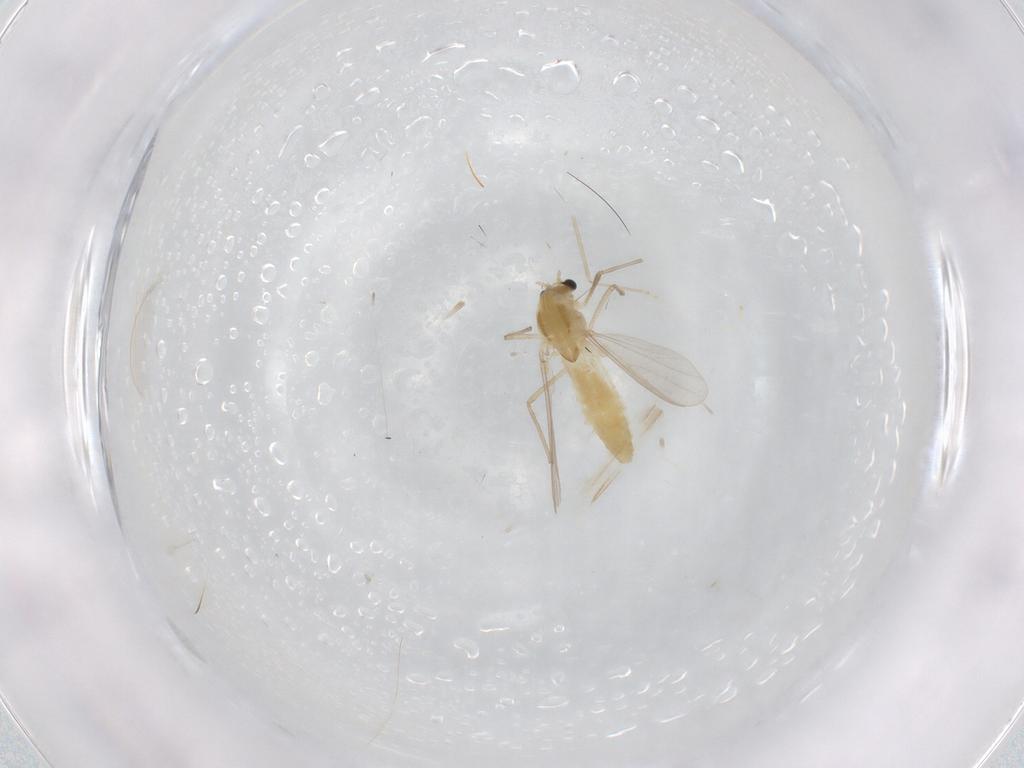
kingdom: Animalia
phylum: Arthropoda
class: Insecta
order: Diptera
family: Chironomidae
